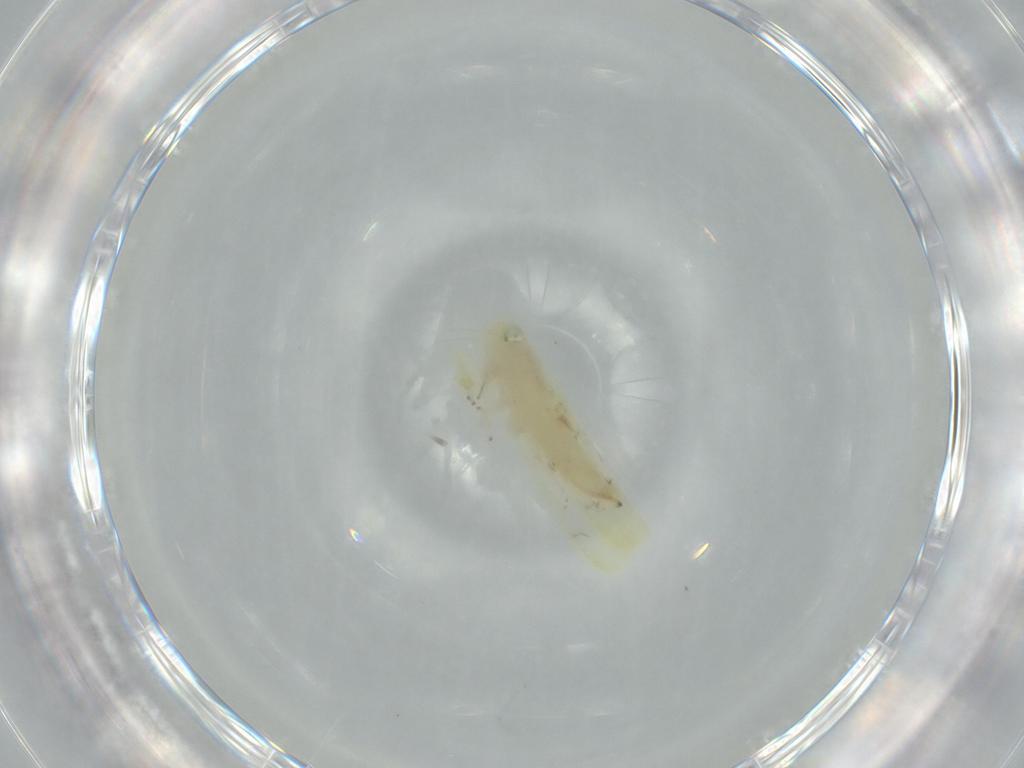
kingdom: Animalia
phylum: Arthropoda
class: Insecta
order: Hemiptera
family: Cicadellidae
